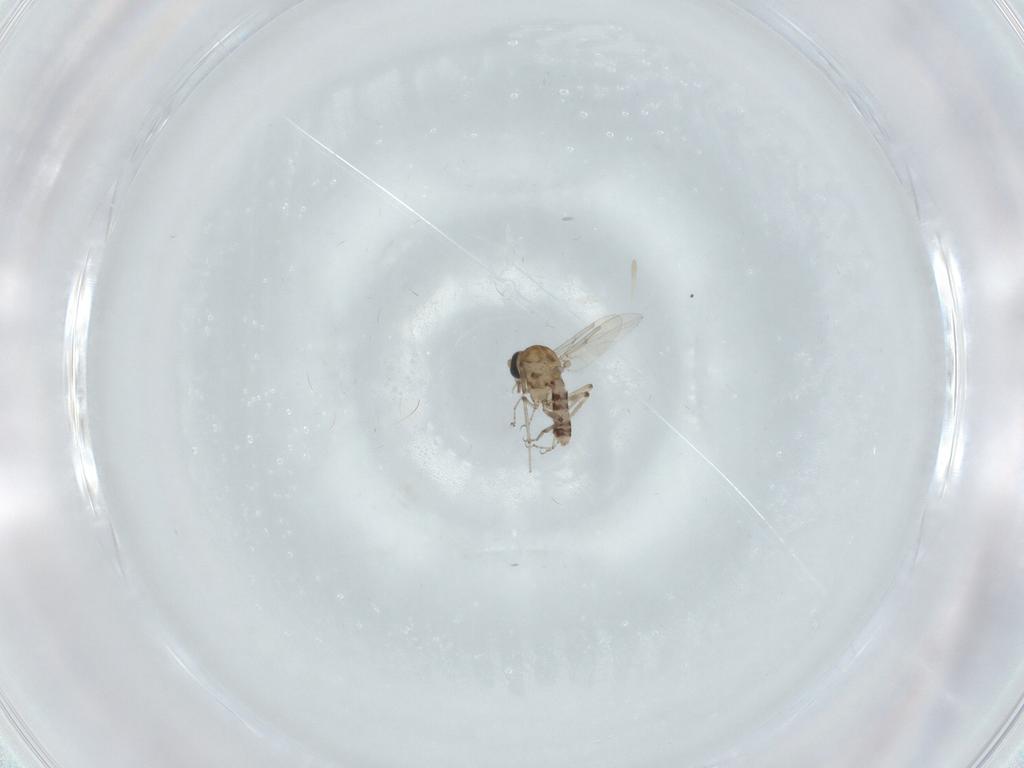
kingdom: Animalia
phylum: Arthropoda
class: Insecta
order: Diptera
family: Ceratopogonidae
